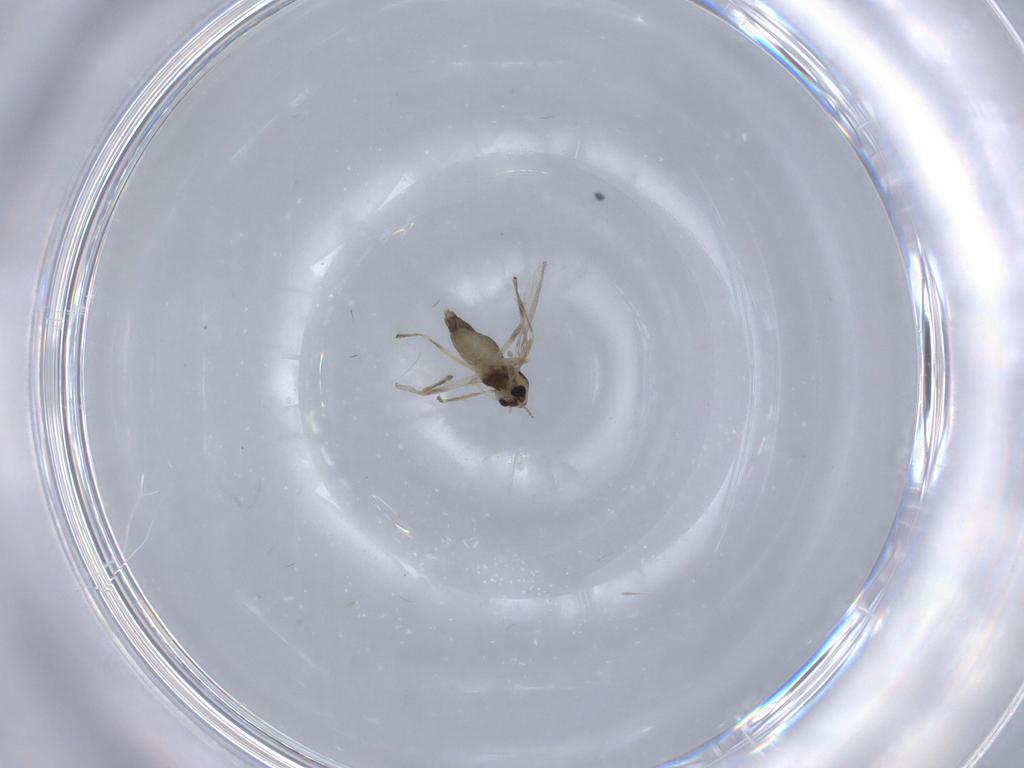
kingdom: Animalia
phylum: Arthropoda
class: Insecta
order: Diptera
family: Chironomidae
